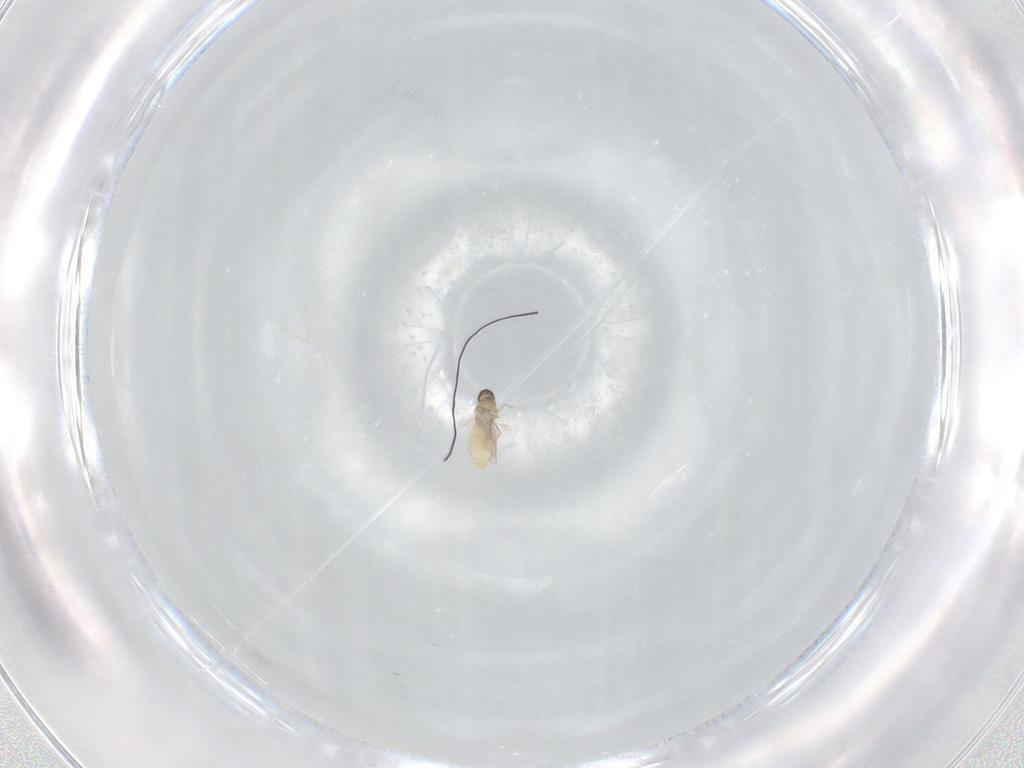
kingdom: Animalia
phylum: Arthropoda
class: Insecta
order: Diptera
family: Cecidomyiidae
